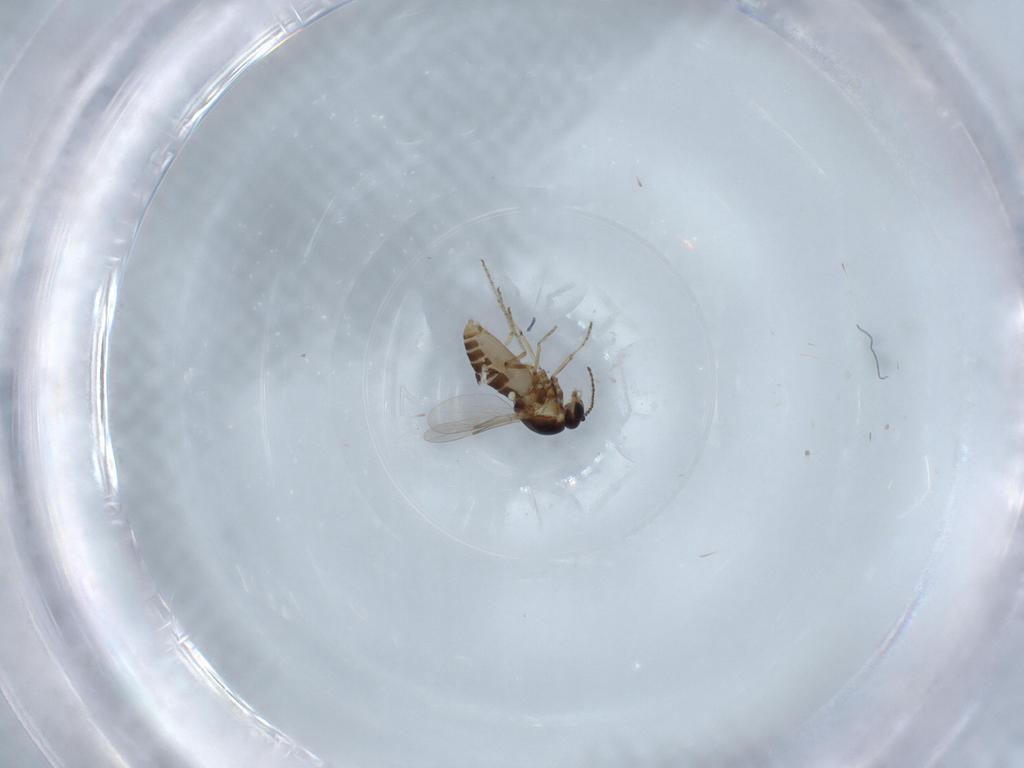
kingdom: Animalia
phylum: Arthropoda
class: Insecta
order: Diptera
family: Ceratopogonidae
